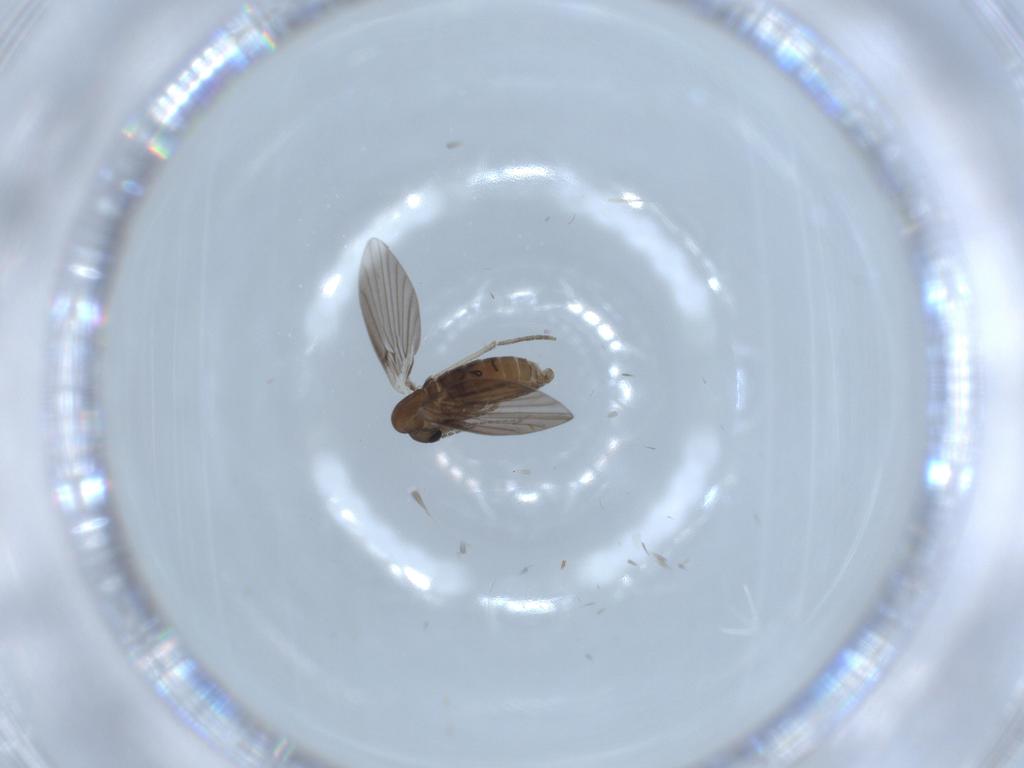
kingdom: Animalia
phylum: Arthropoda
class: Insecta
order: Diptera
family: Psychodidae
